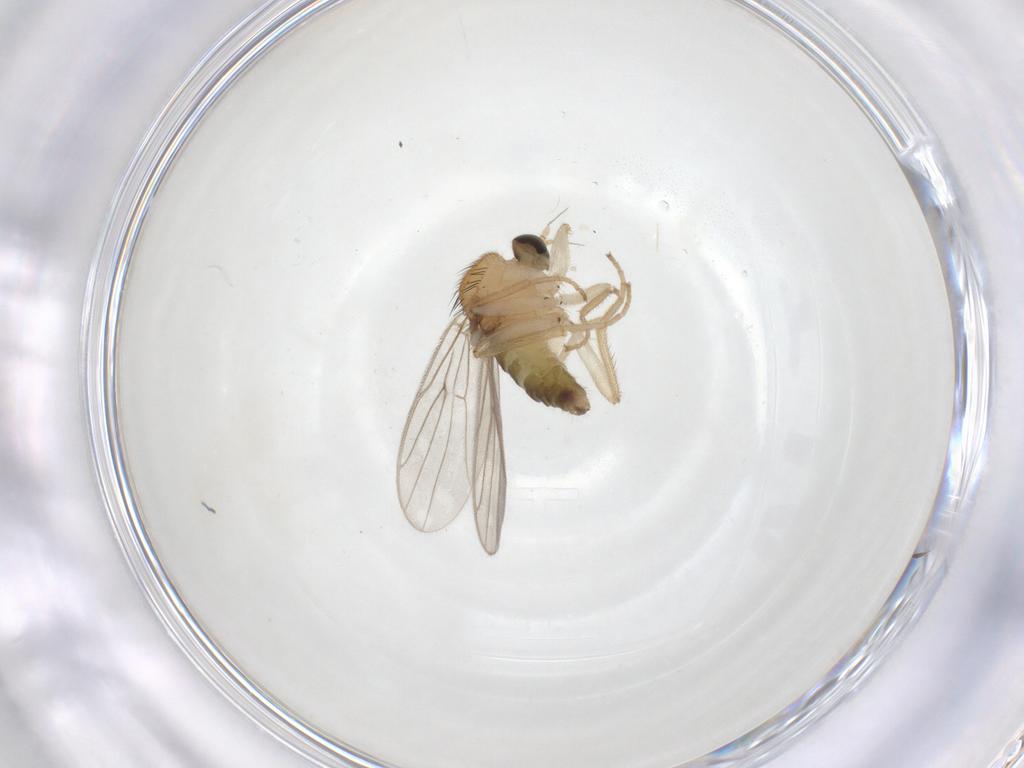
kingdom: Animalia
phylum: Arthropoda
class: Insecta
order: Diptera
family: Hybotidae
